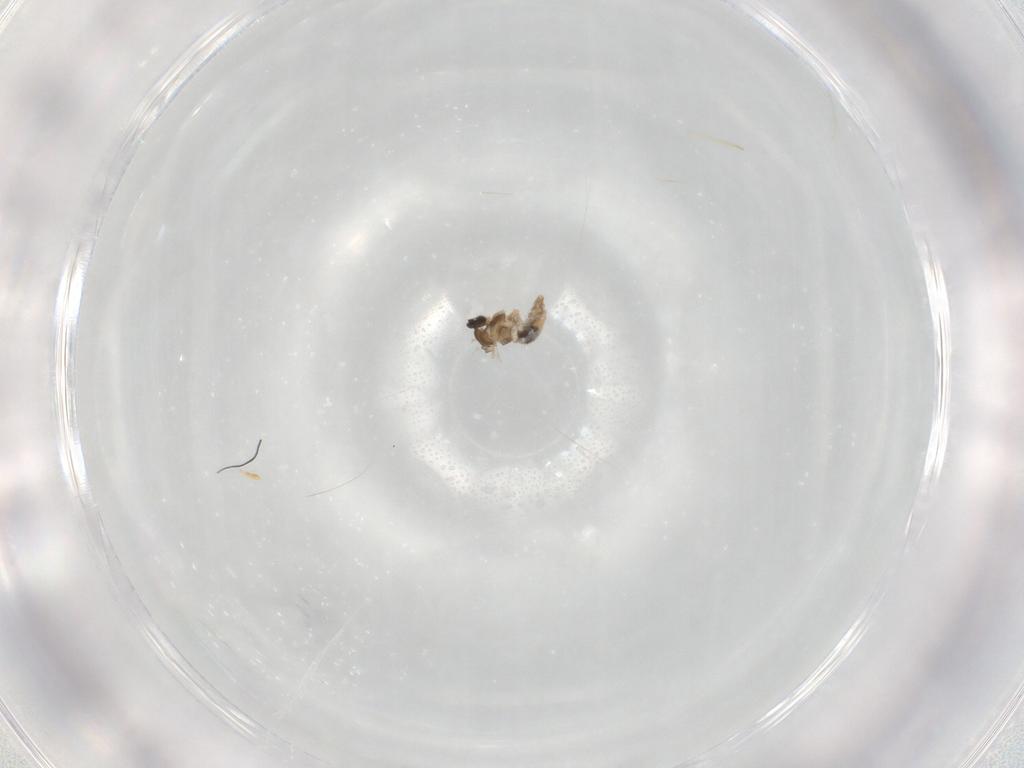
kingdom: Animalia
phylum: Arthropoda
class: Insecta
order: Diptera
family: Cecidomyiidae
